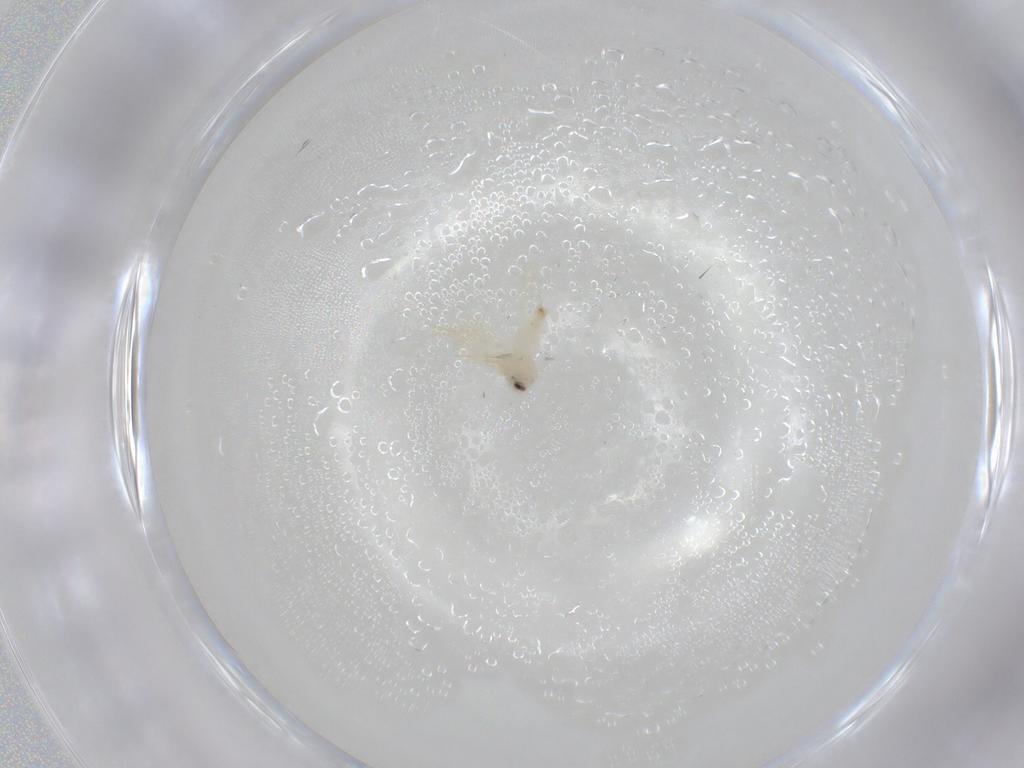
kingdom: Animalia
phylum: Arthropoda
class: Insecta
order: Hemiptera
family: Aleyrodidae
